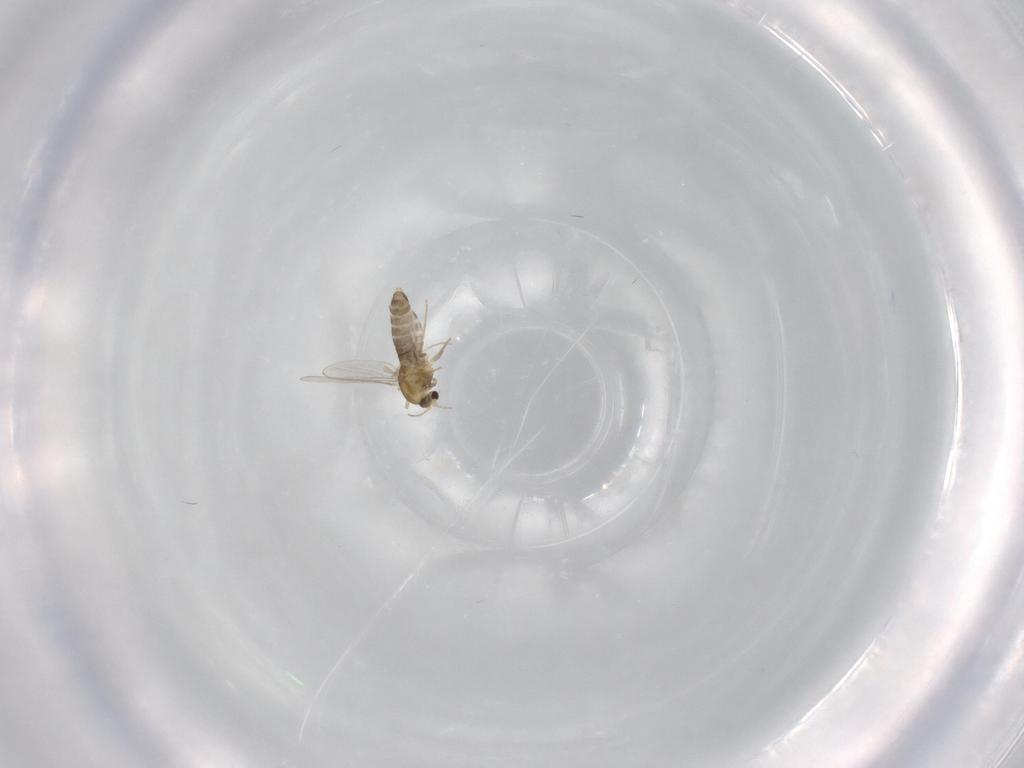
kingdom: Animalia
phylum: Arthropoda
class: Insecta
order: Diptera
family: Chironomidae
